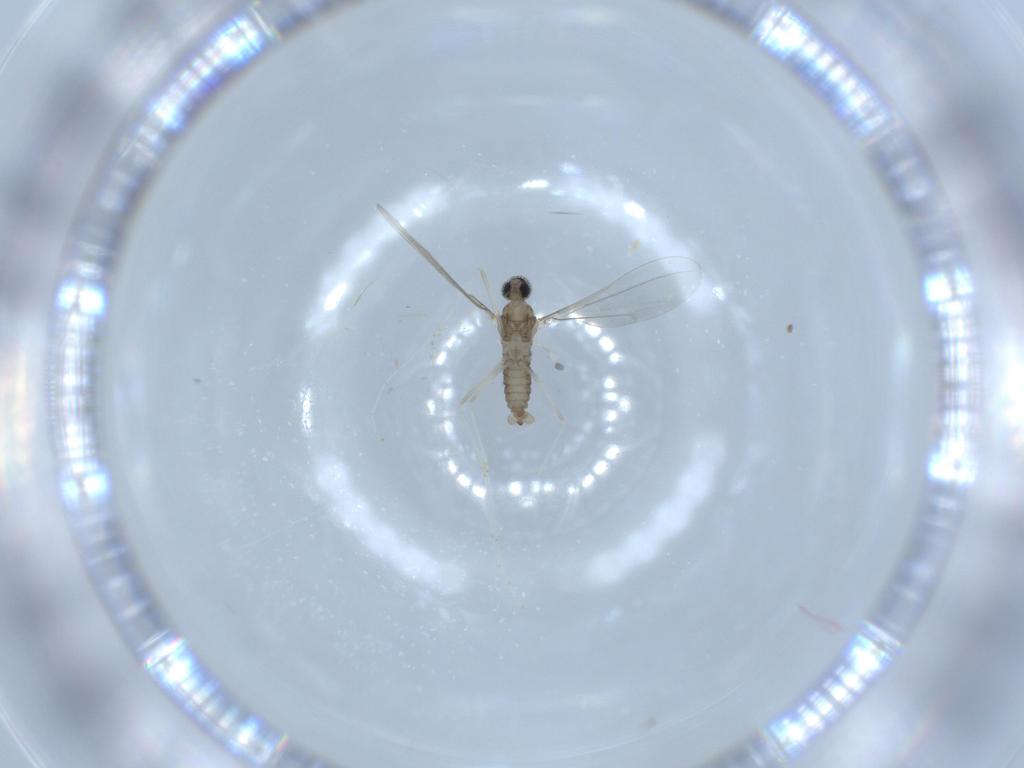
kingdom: Animalia
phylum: Arthropoda
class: Insecta
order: Diptera
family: Cecidomyiidae
